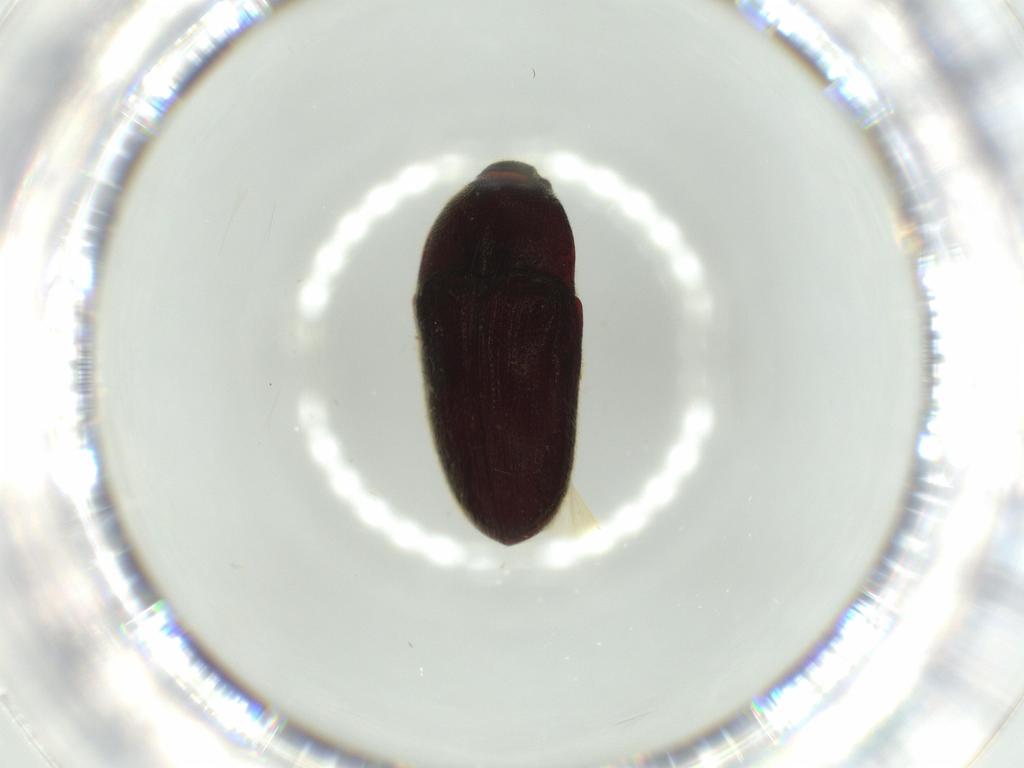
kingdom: Animalia
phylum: Arthropoda
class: Insecta
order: Coleoptera
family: Throscidae
